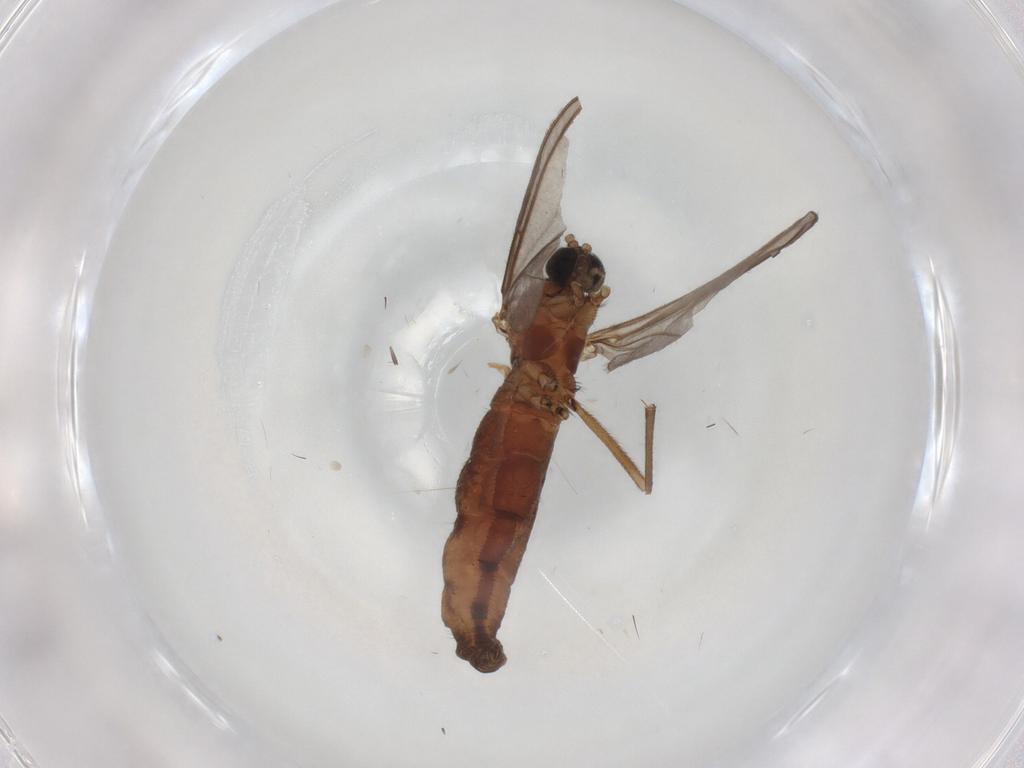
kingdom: Animalia
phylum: Arthropoda
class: Insecta
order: Diptera
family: Sciaridae
